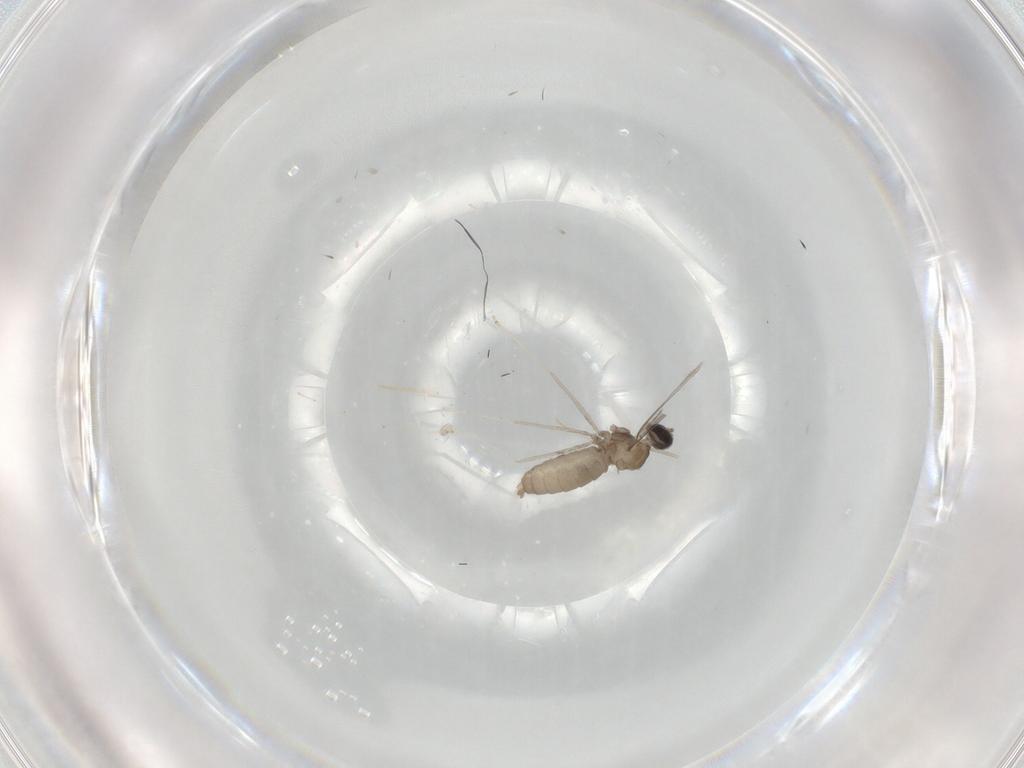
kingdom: Animalia
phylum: Arthropoda
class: Insecta
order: Diptera
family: Cecidomyiidae
